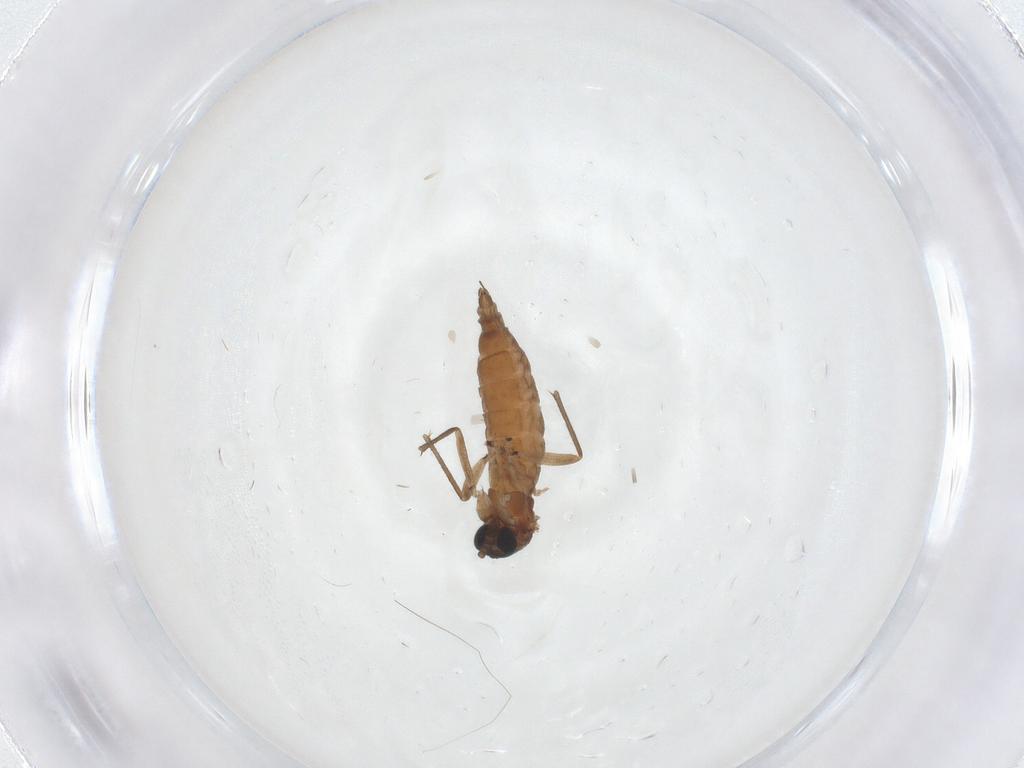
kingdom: Animalia
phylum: Arthropoda
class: Insecta
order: Diptera
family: Sciaridae
